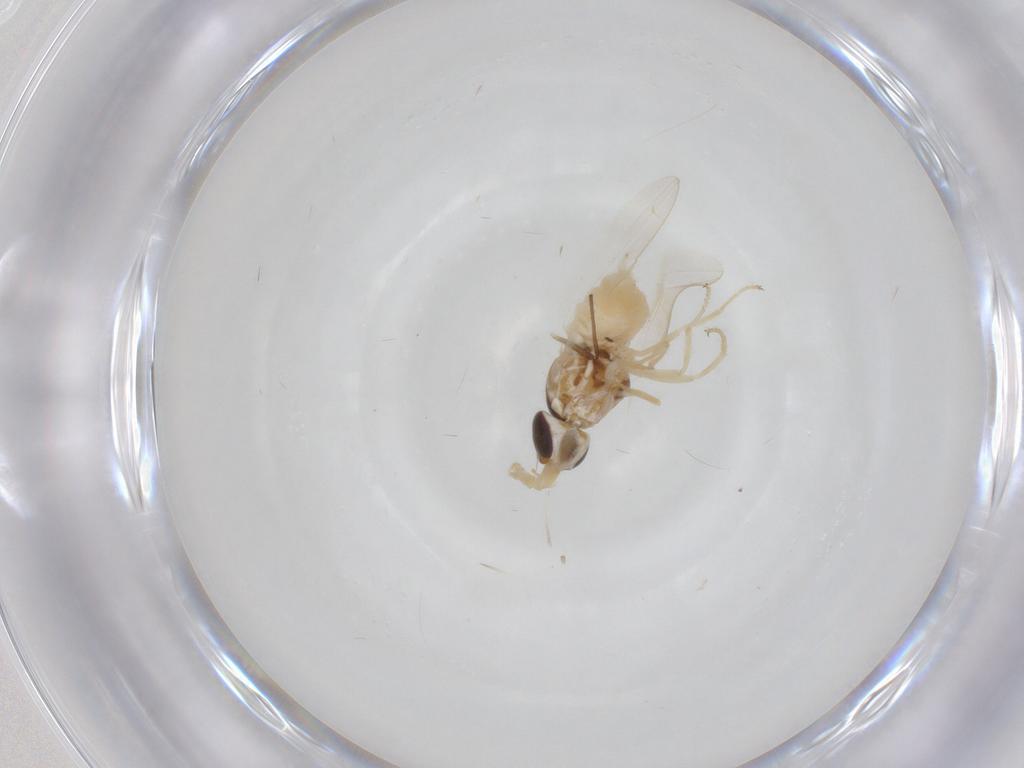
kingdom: Animalia
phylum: Arthropoda
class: Insecta
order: Diptera
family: Chloropidae
